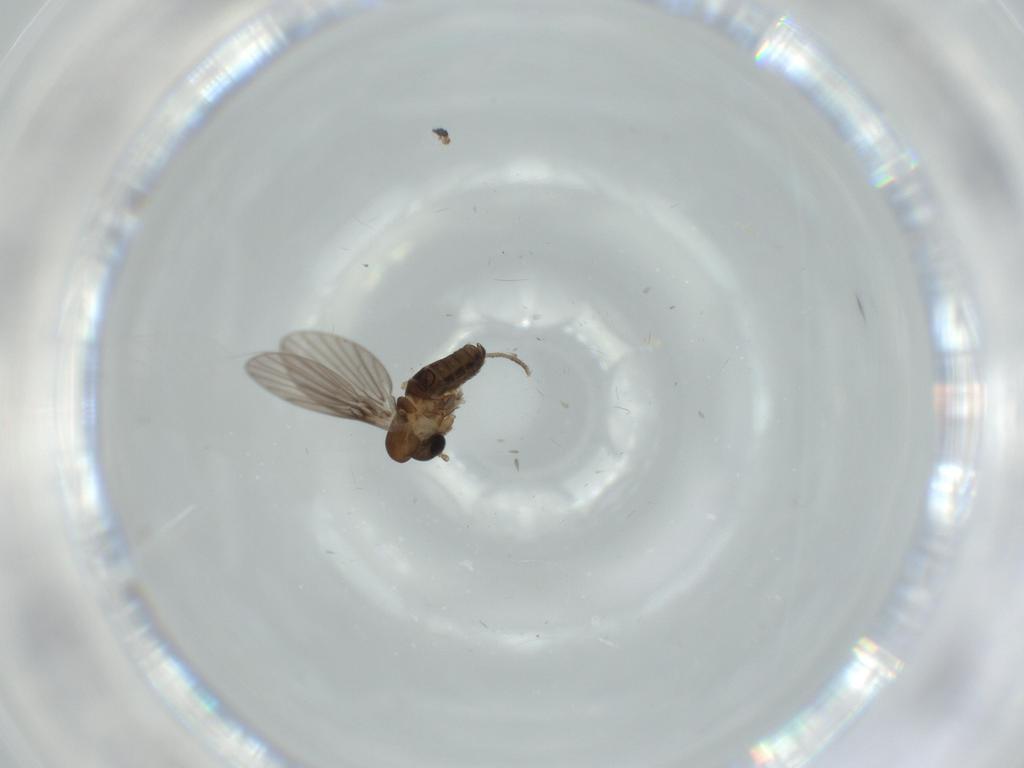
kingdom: Animalia
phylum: Arthropoda
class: Insecta
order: Diptera
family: Psychodidae
